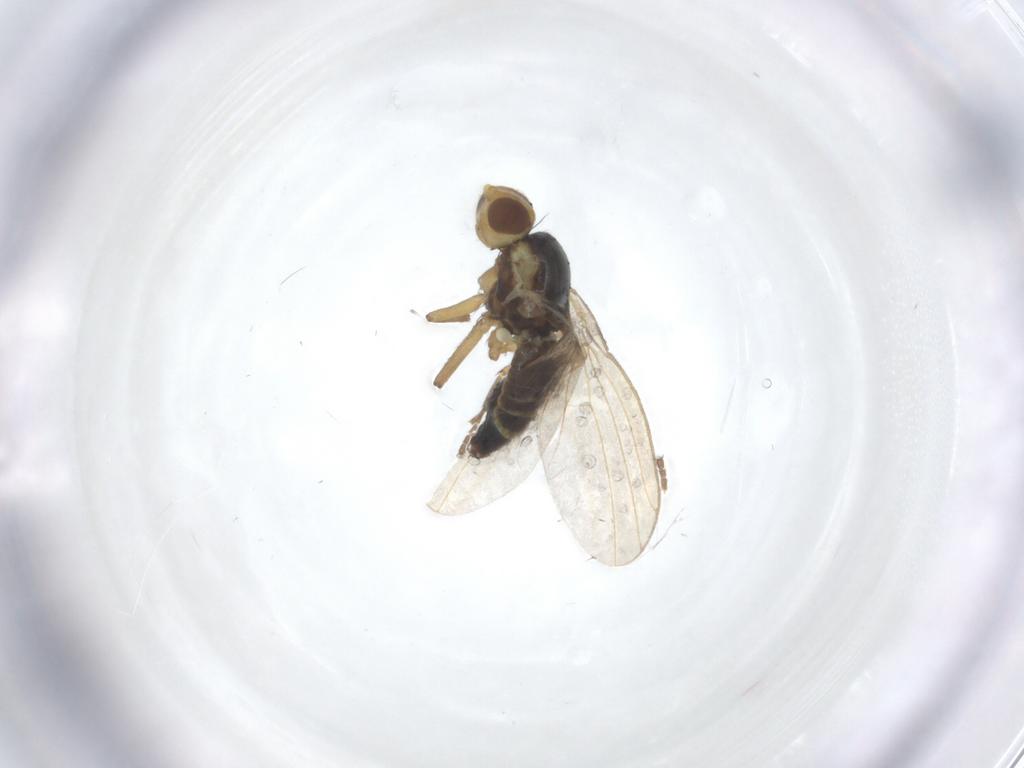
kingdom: Animalia
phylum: Arthropoda
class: Insecta
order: Diptera
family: Agromyzidae
